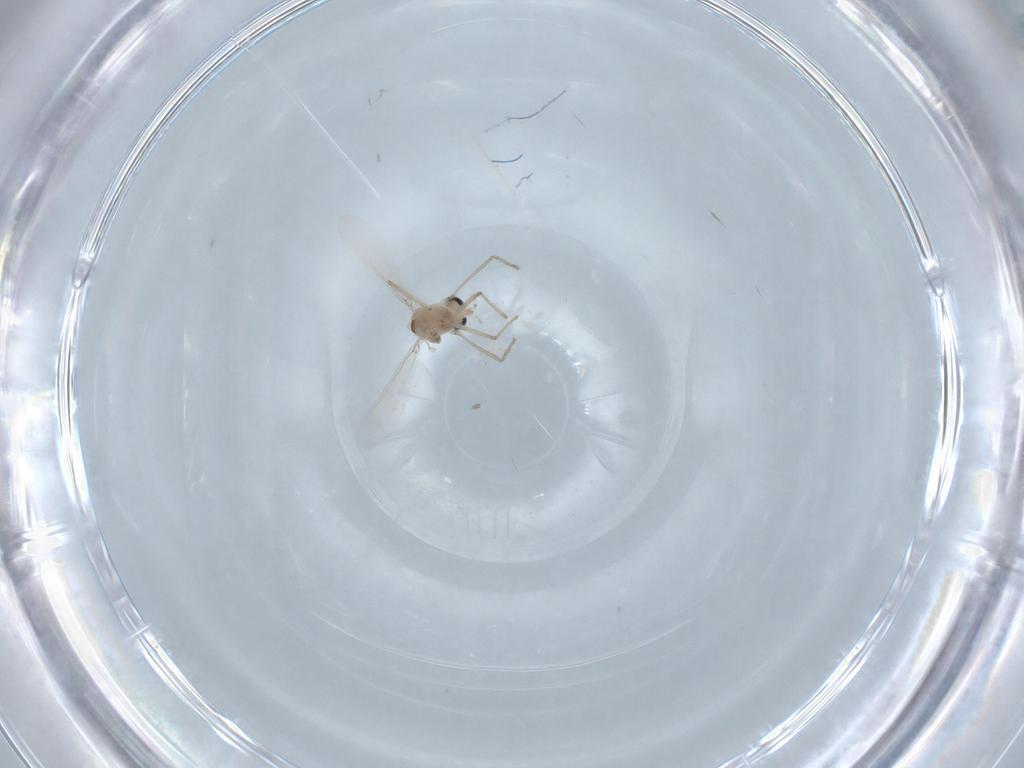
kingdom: Animalia
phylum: Arthropoda
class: Insecta
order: Diptera
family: Chironomidae
